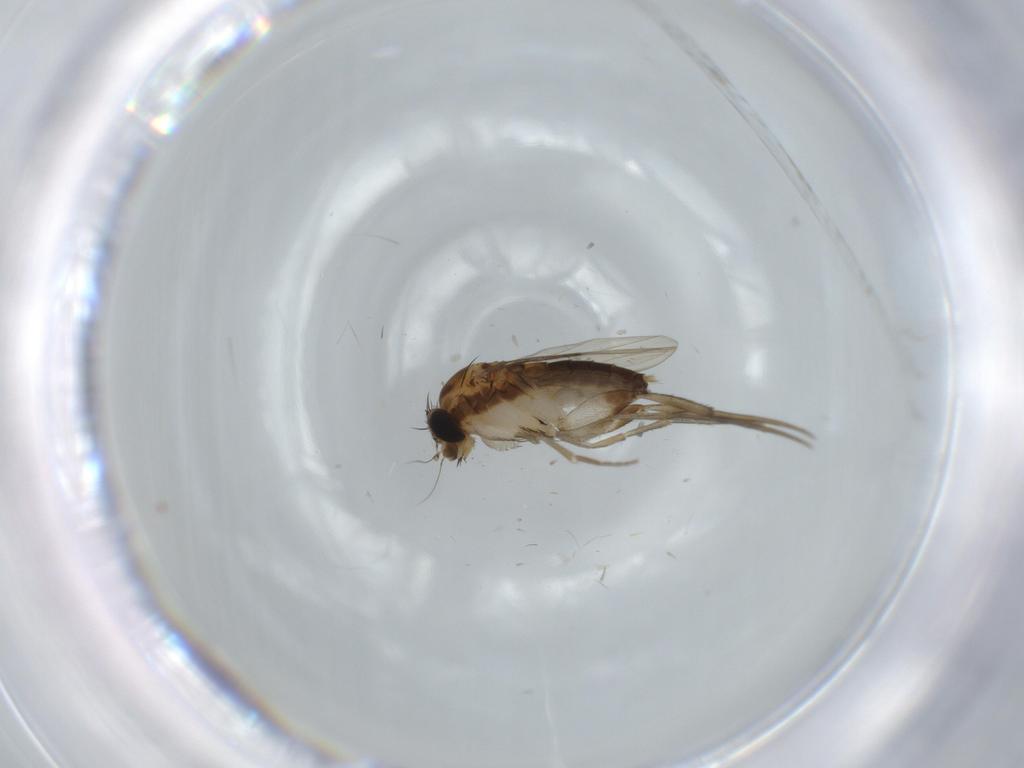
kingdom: Animalia
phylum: Arthropoda
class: Insecta
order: Diptera
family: Phoridae
